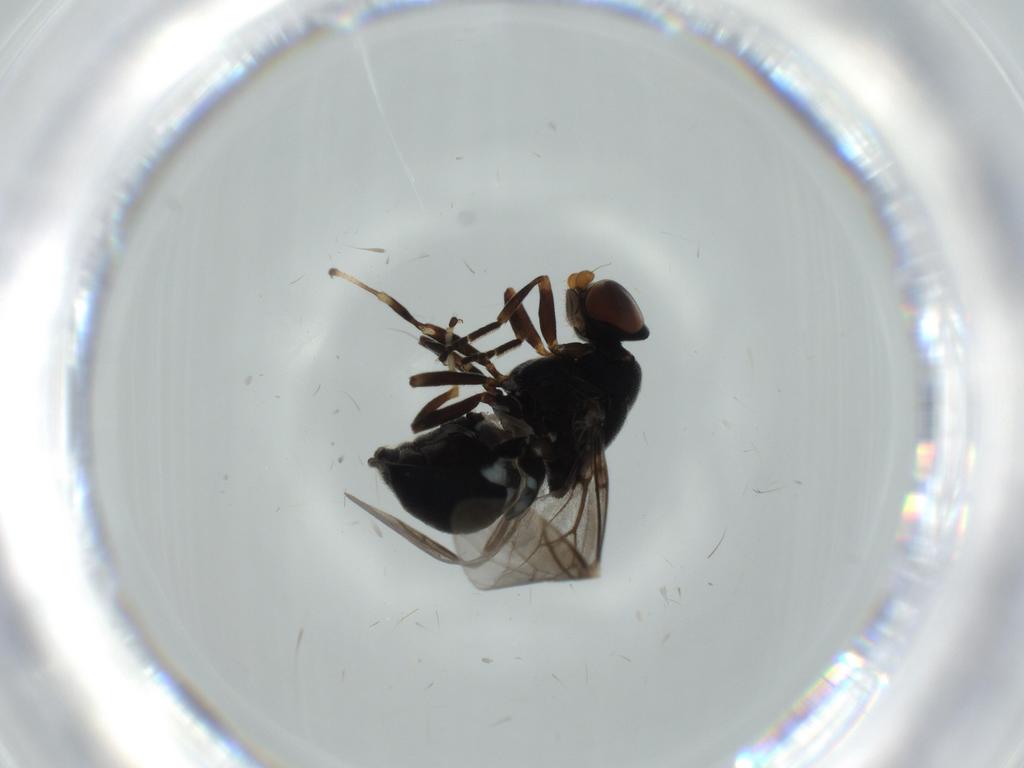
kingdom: Animalia
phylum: Arthropoda
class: Insecta
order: Diptera
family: Stratiomyidae
